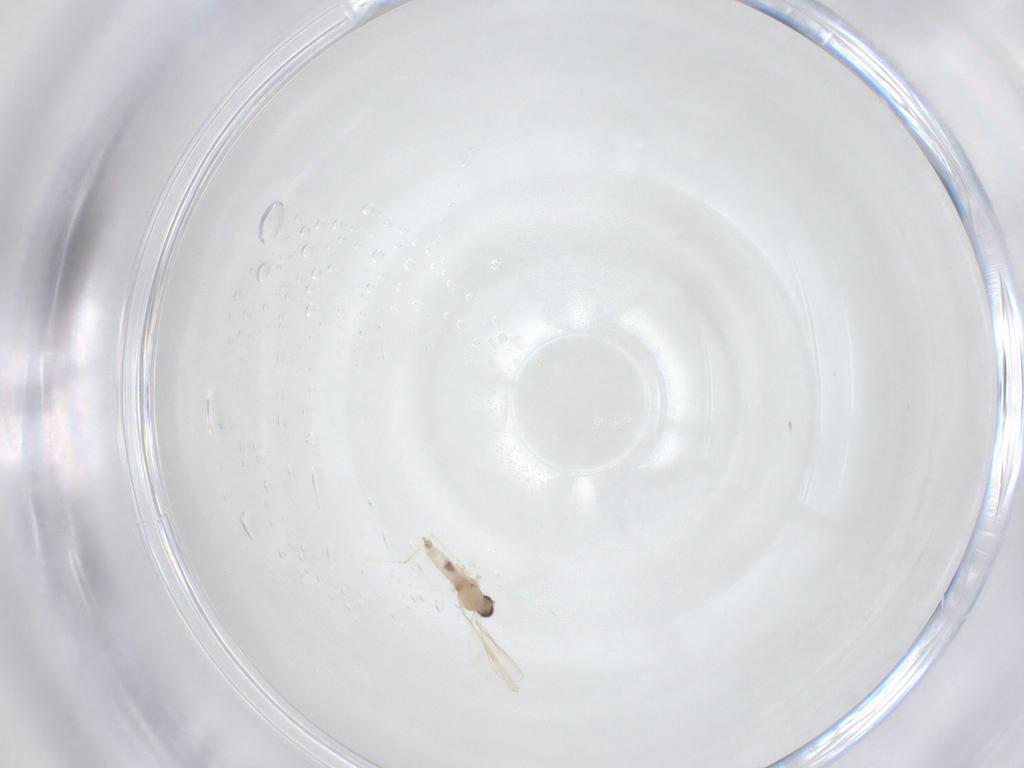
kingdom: Animalia
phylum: Arthropoda
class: Insecta
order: Diptera
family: Cecidomyiidae
